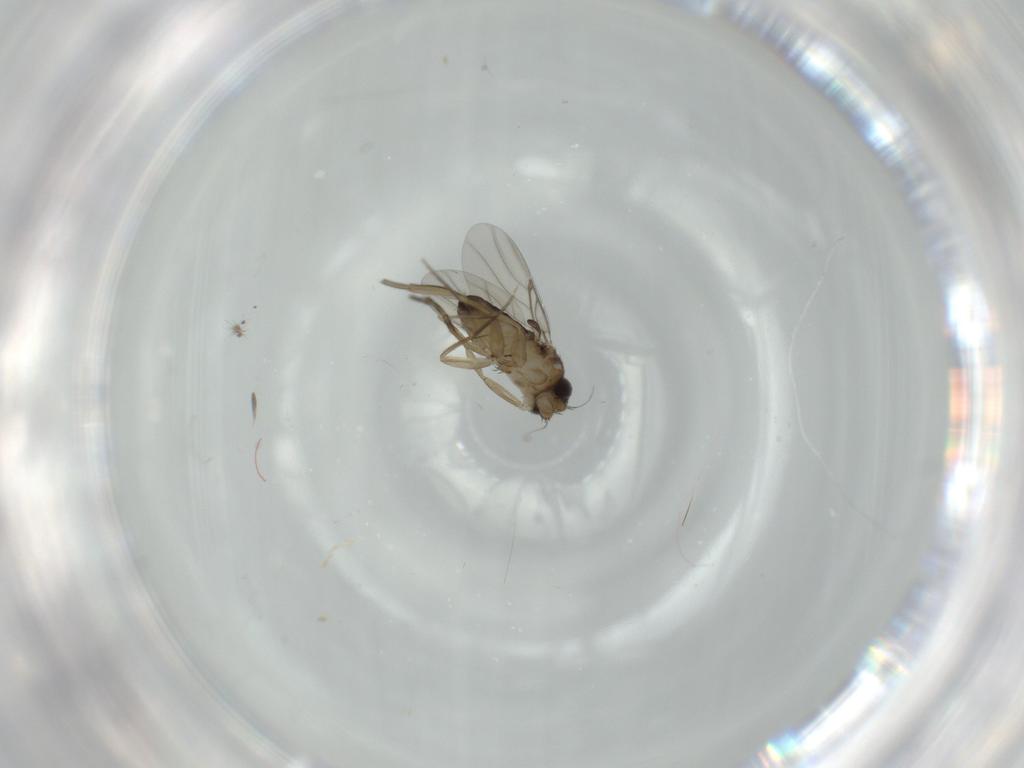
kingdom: Animalia
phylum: Arthropoda
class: Insecta
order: Diptera
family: Phoridae
